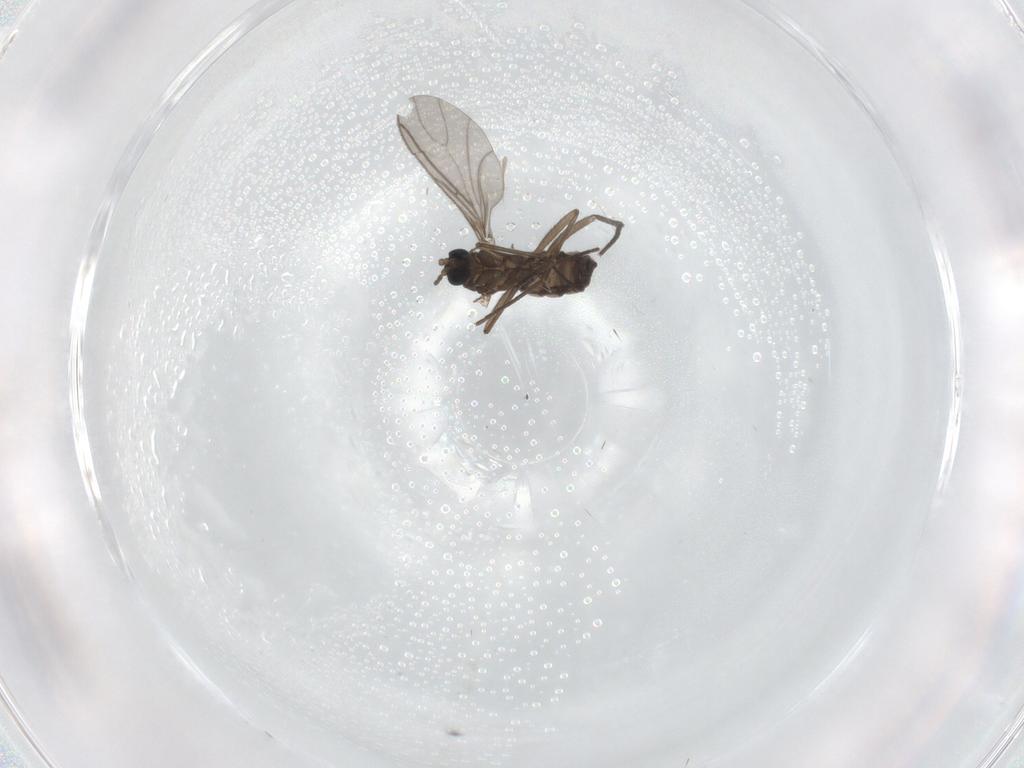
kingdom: Animalia
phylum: Arthropoda
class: Insecta
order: Diptera
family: Sciaridae
